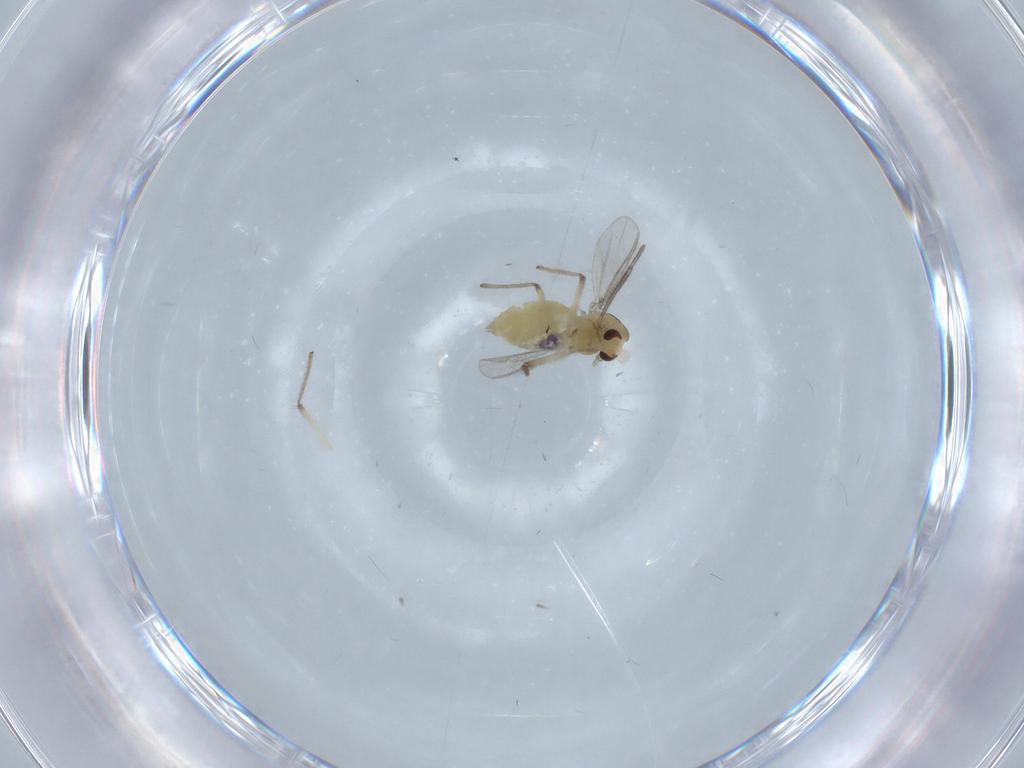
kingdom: Animalia
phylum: Arthropoda
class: Insecta
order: Diptera
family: Chironomidae
